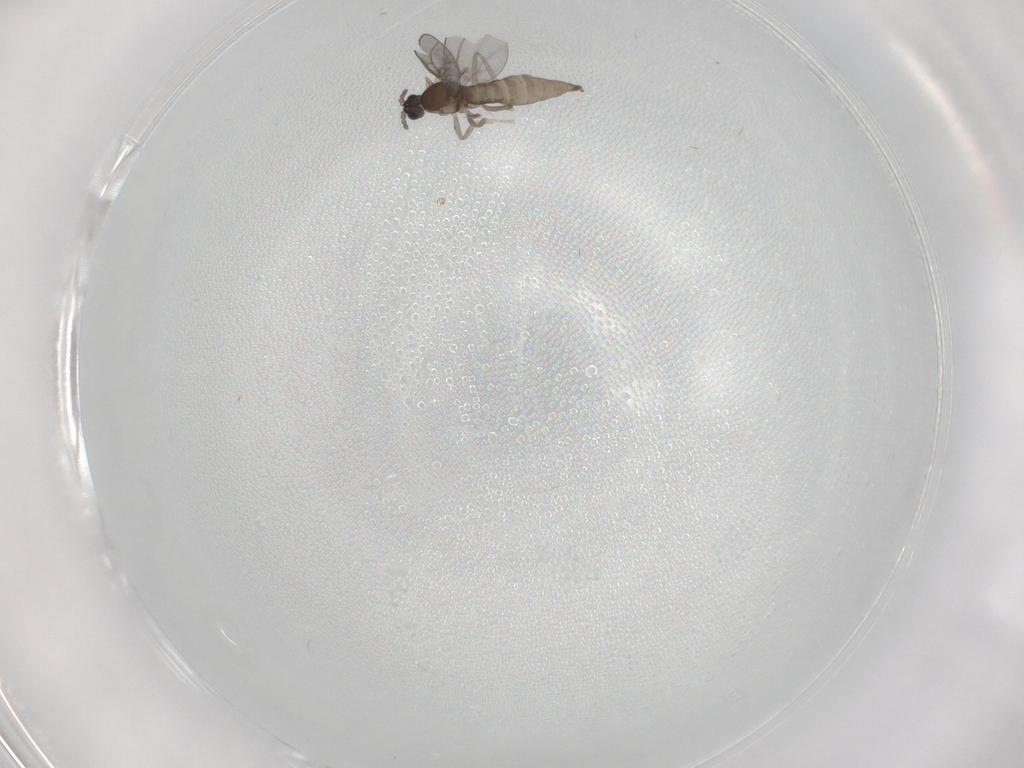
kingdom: Animalia
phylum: Arthropoda
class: Insecta
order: Diptera
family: Cecidomyiidae
